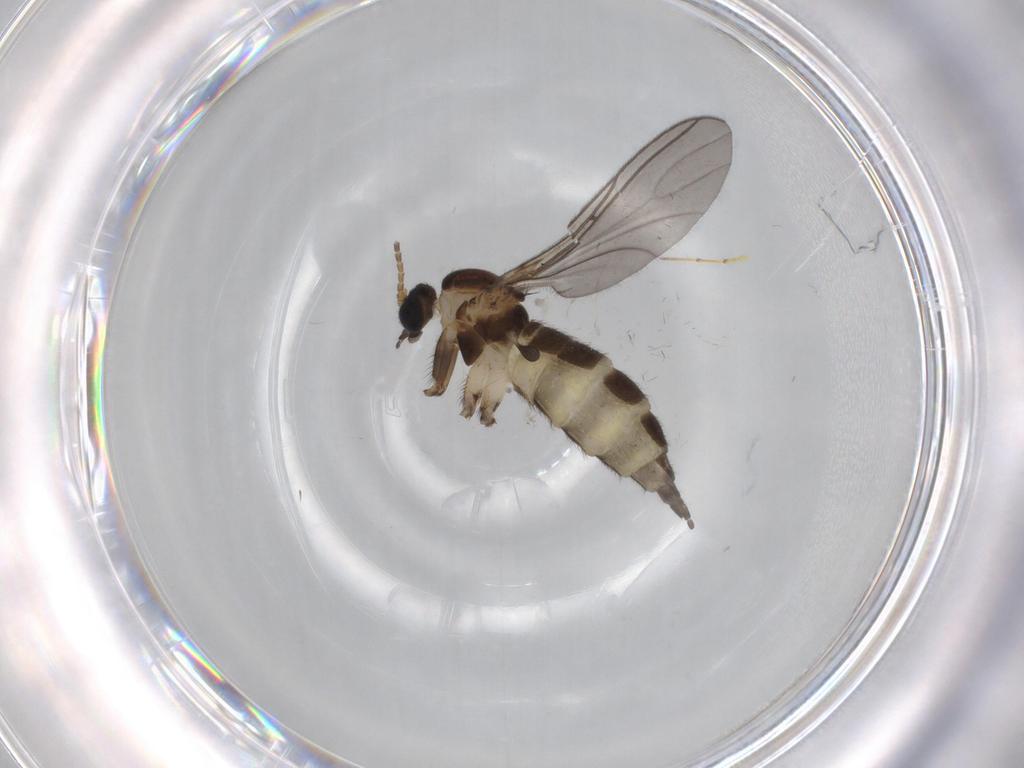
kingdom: Animalia
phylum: Arthropoda
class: Insecta
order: Diptera
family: Sciaridae
